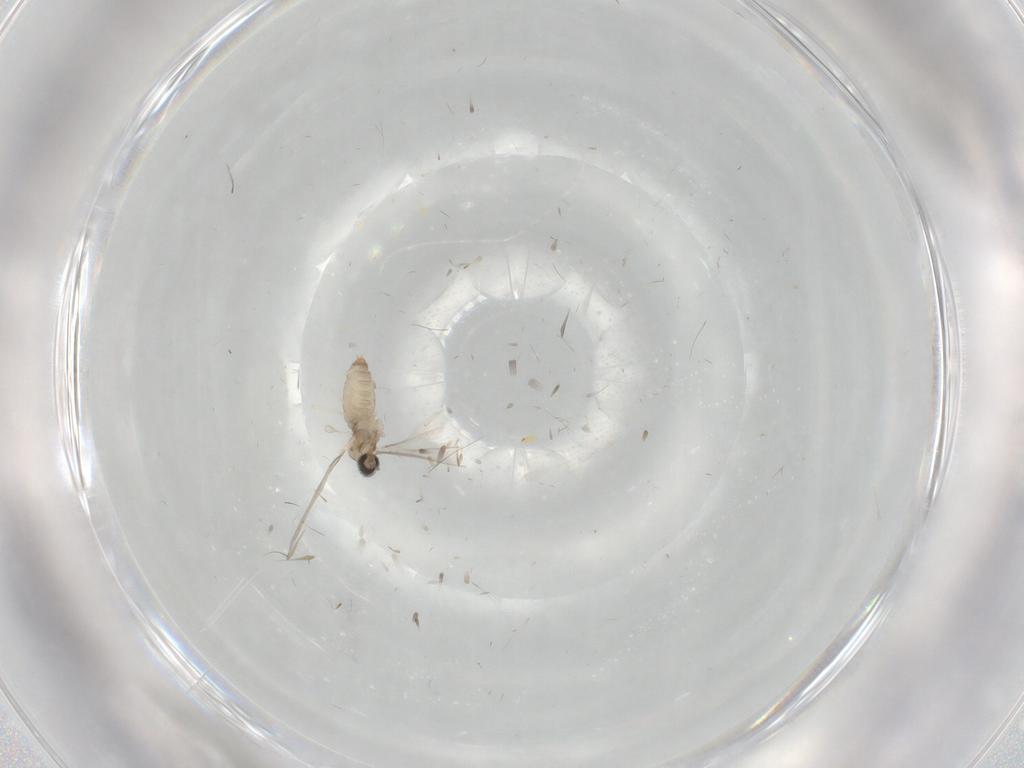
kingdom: Animalia
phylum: Arthropoda
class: Insecta
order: Diptera
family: Cecidomyiidae
